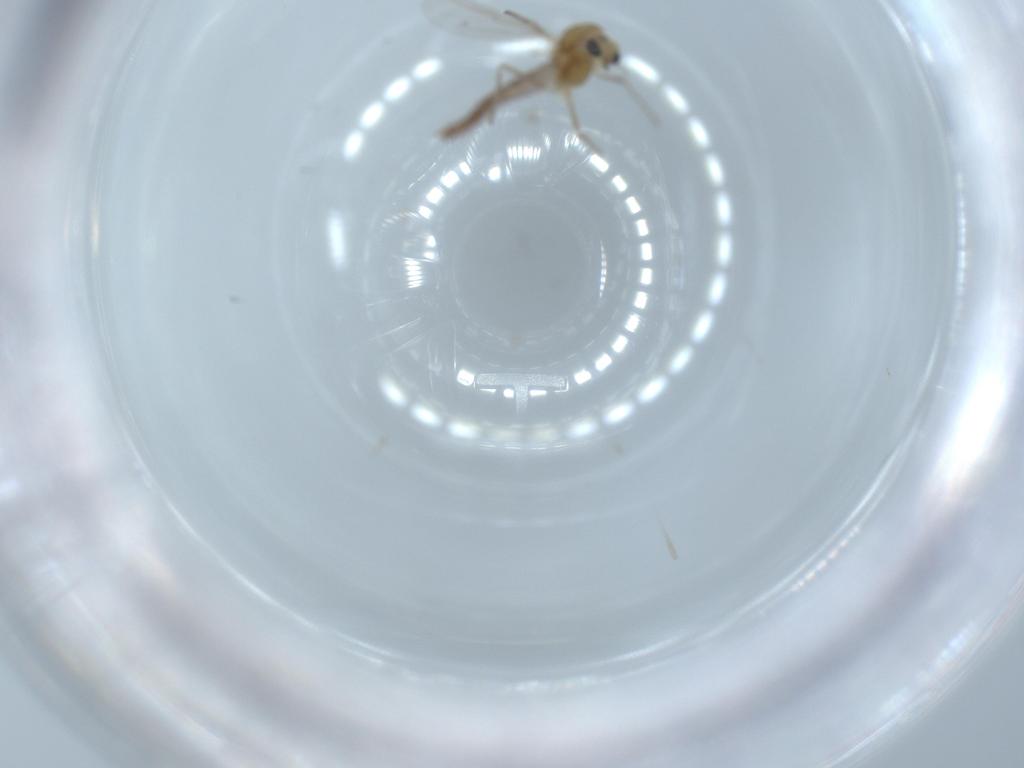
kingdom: Animalia
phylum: Arthropoda
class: Insecta
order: Diptera
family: Chironomidae
